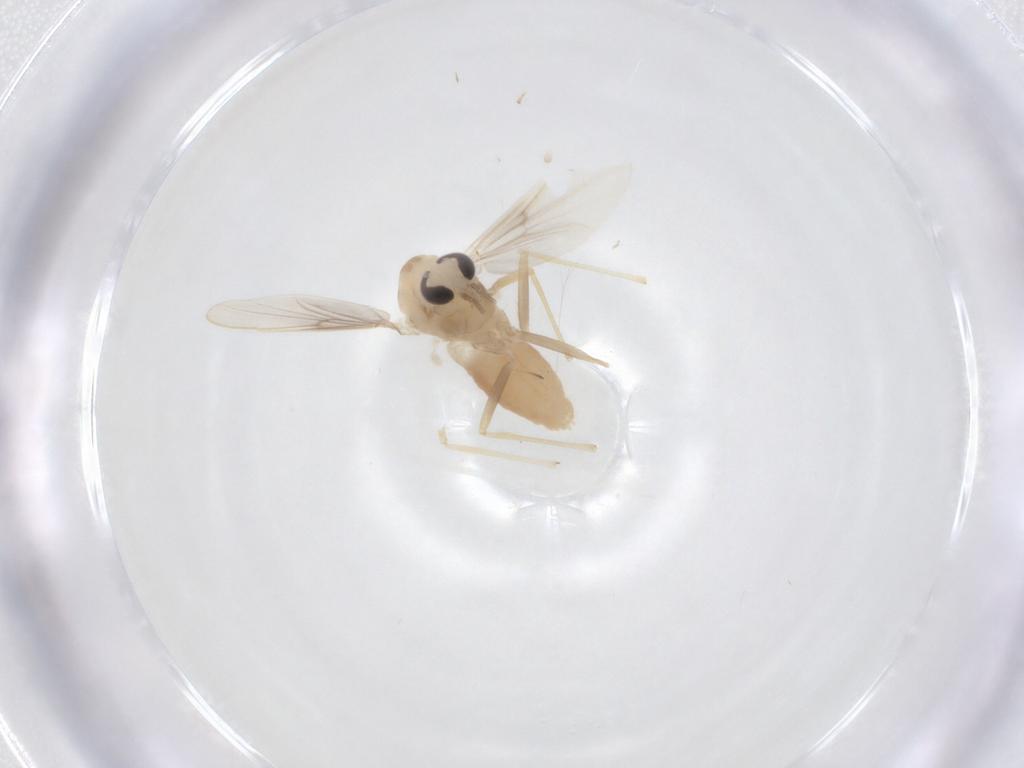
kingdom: Animalia
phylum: Arthropoda
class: Insecta
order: Diptera
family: Chironomidae
